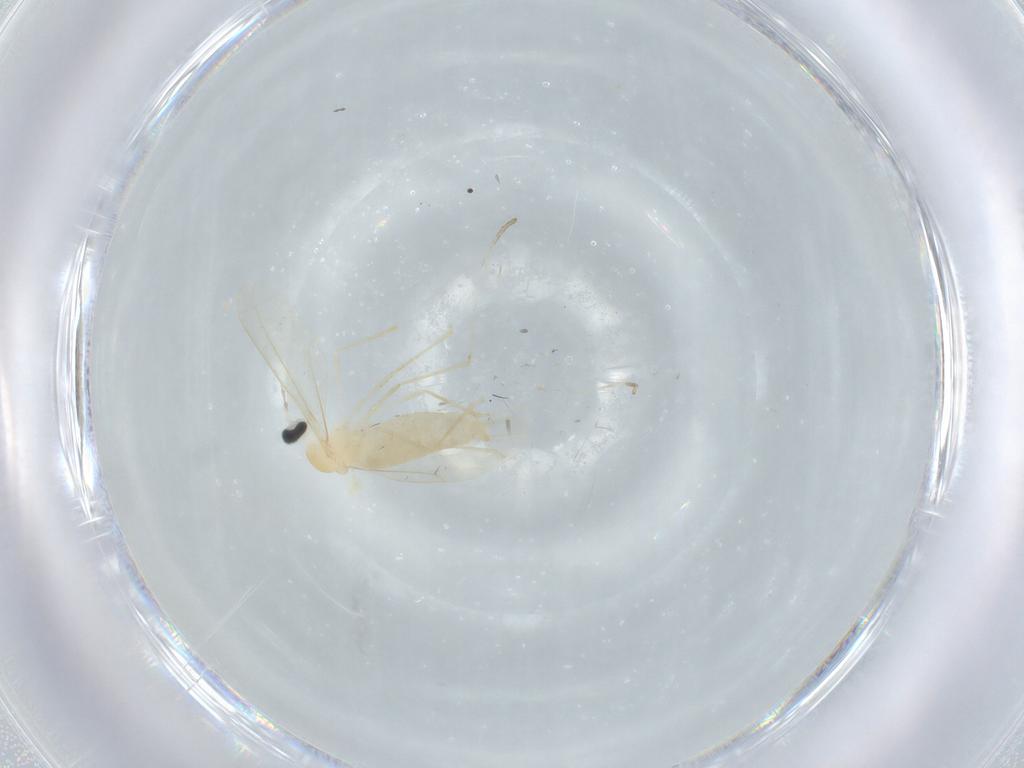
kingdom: Animalia
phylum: Arthropoda
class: Insecta
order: Diptera
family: Cecidomyiidae
